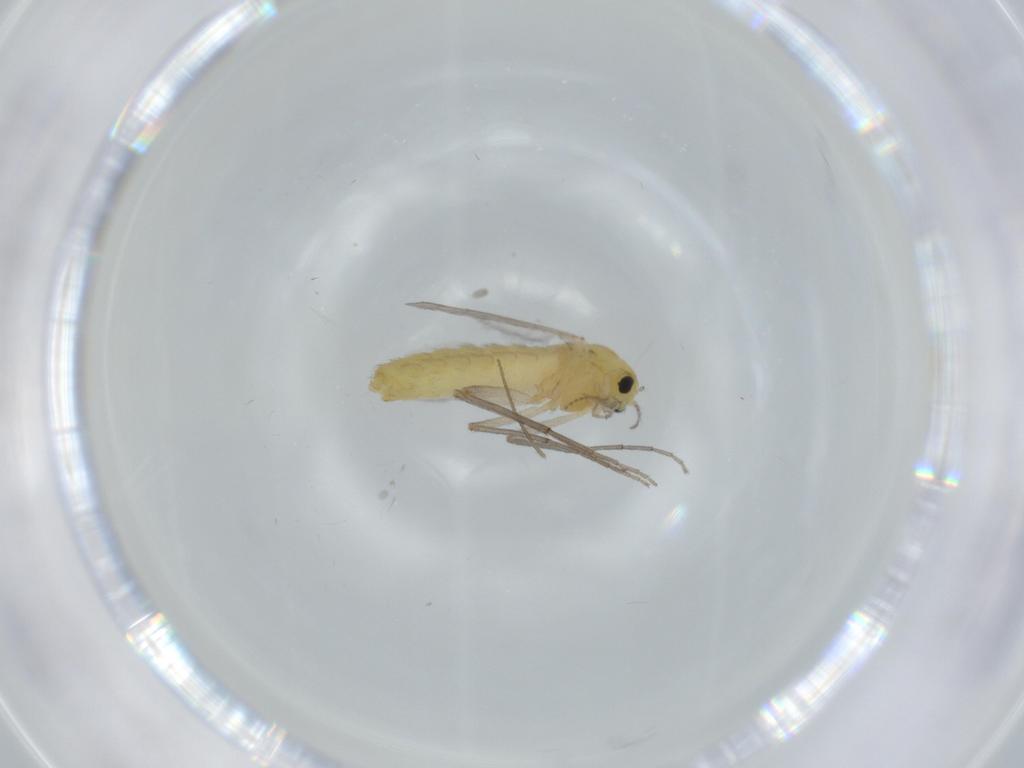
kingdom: Animalia
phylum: Arthropoda
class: Insecta
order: Diptera
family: Chironomidae
